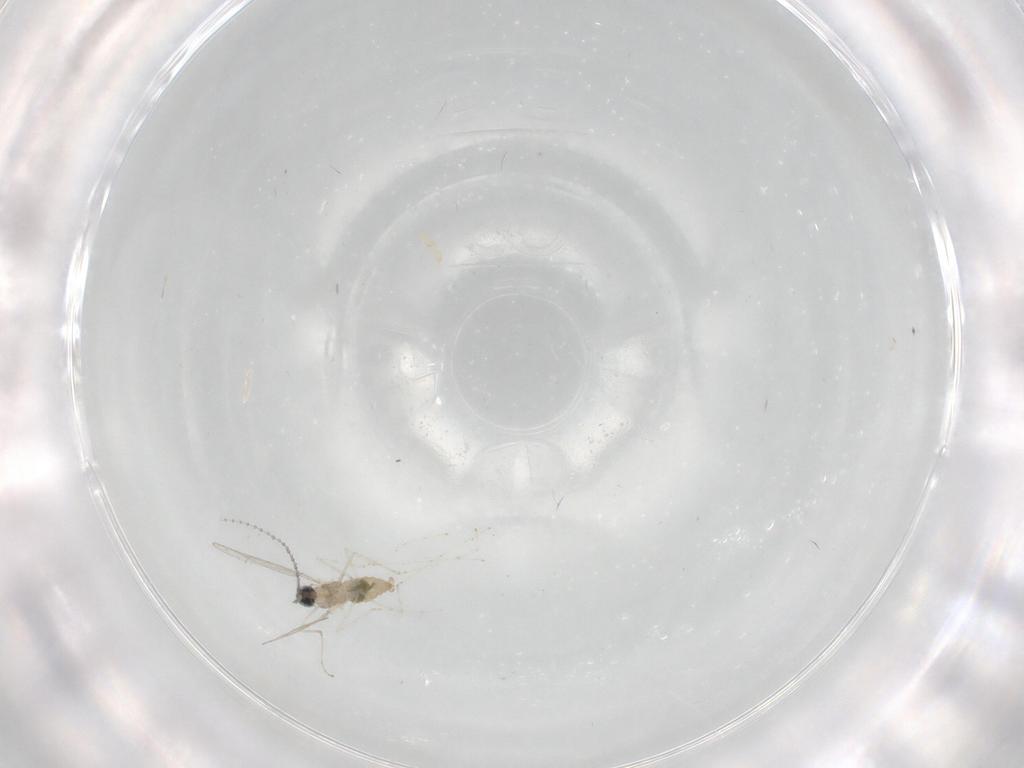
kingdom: Animalia
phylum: Arthropoda
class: Insecta
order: Diptera
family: Cecidomyiidae
